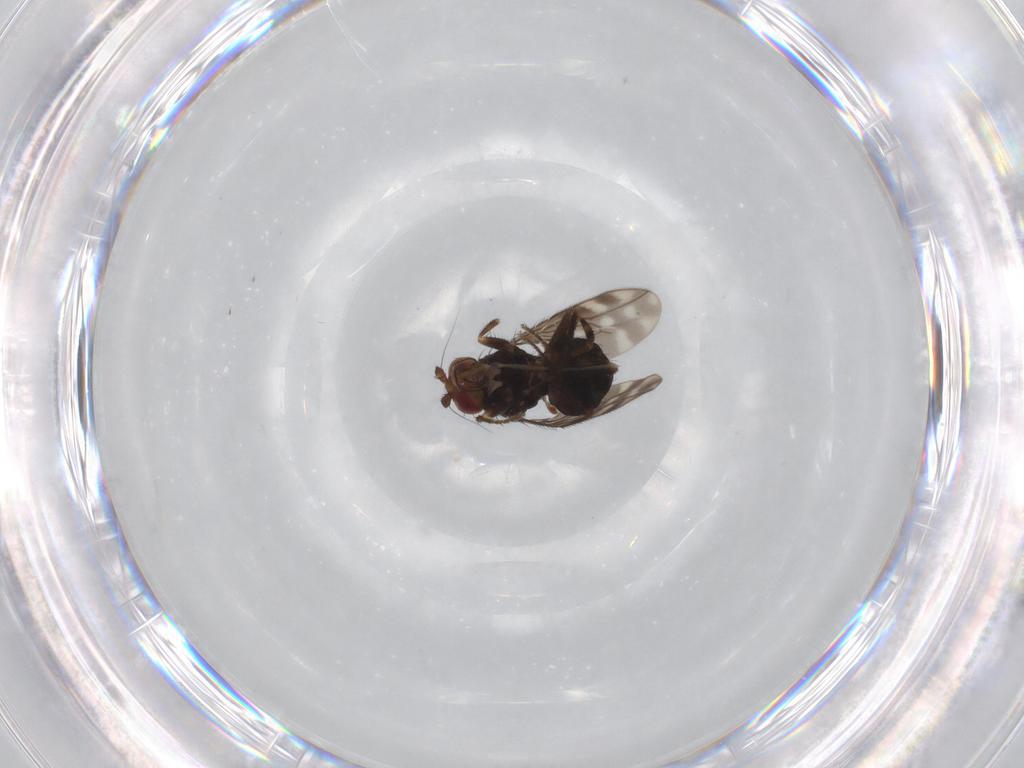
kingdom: Animalia
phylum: Arthropoda
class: Insecta
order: Diptera
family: Sphaeroceridae
